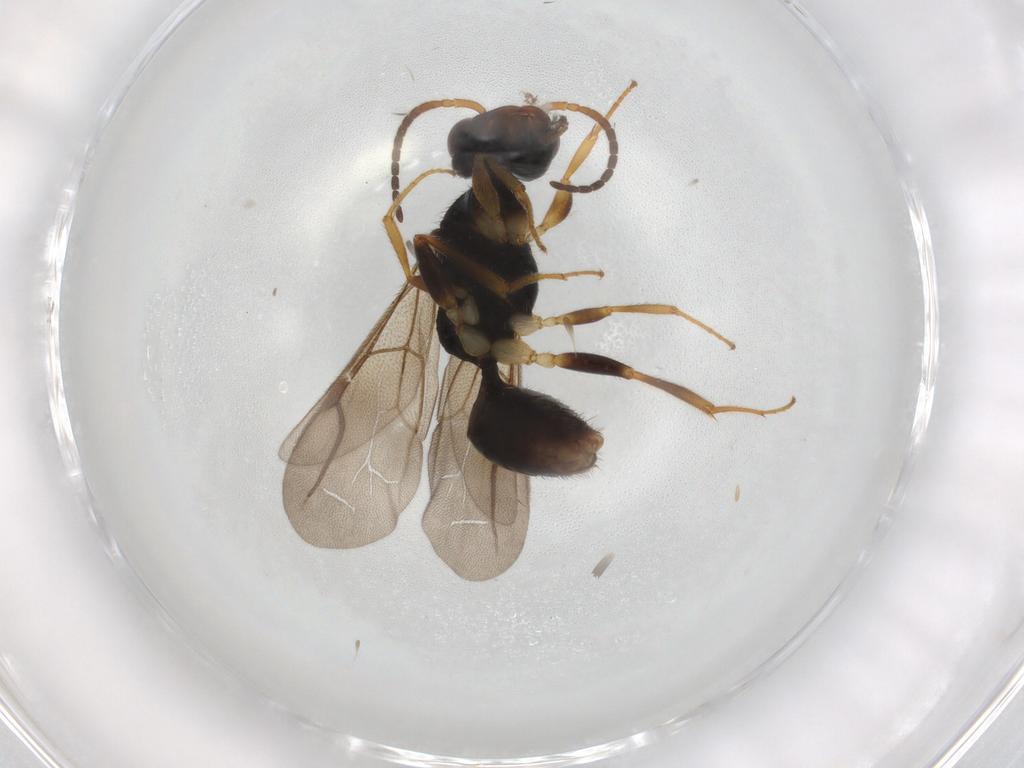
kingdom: Animalia
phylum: Arthropoda
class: Insecta
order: Hymenoptera
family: Bethylidae
